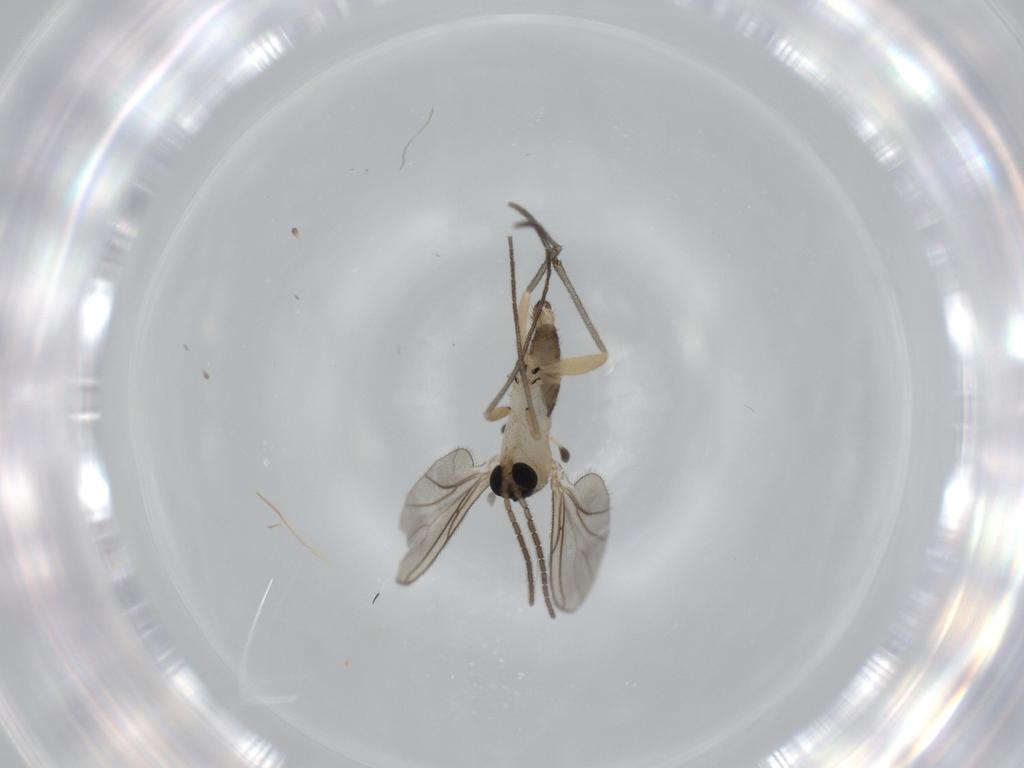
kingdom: Animalia
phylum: Arthropoda
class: Insecta
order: Diptera
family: Sciaridae
